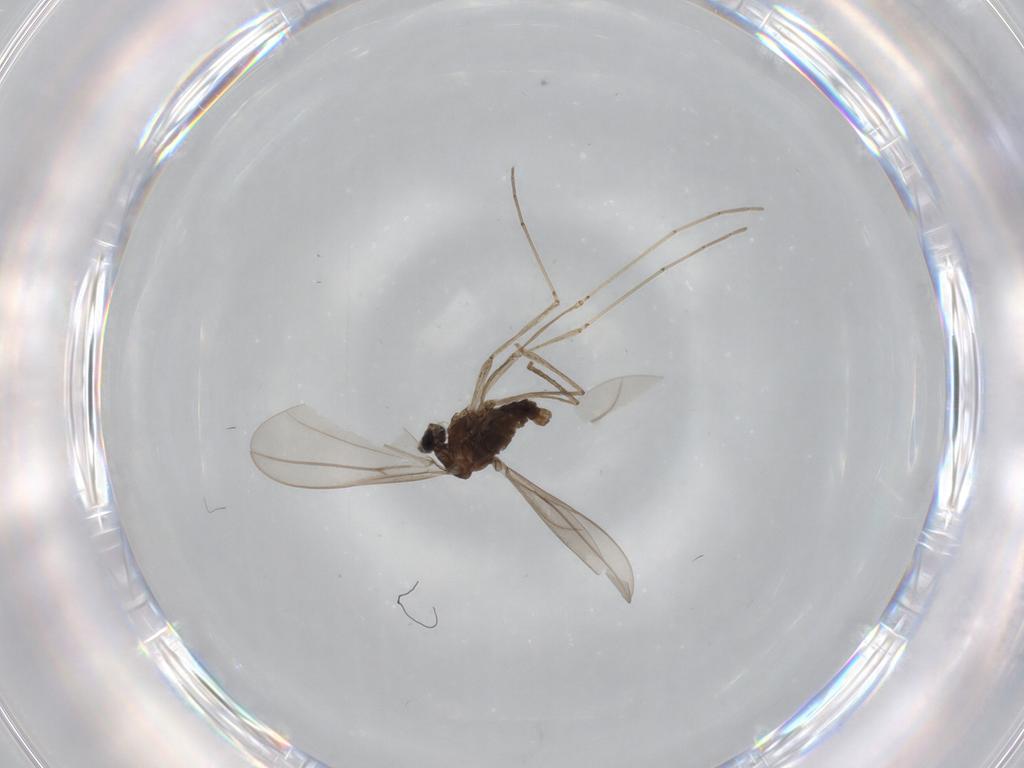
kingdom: Animalia
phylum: Arthropoda
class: Insecta
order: Diptera
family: Cecidomyiidae
